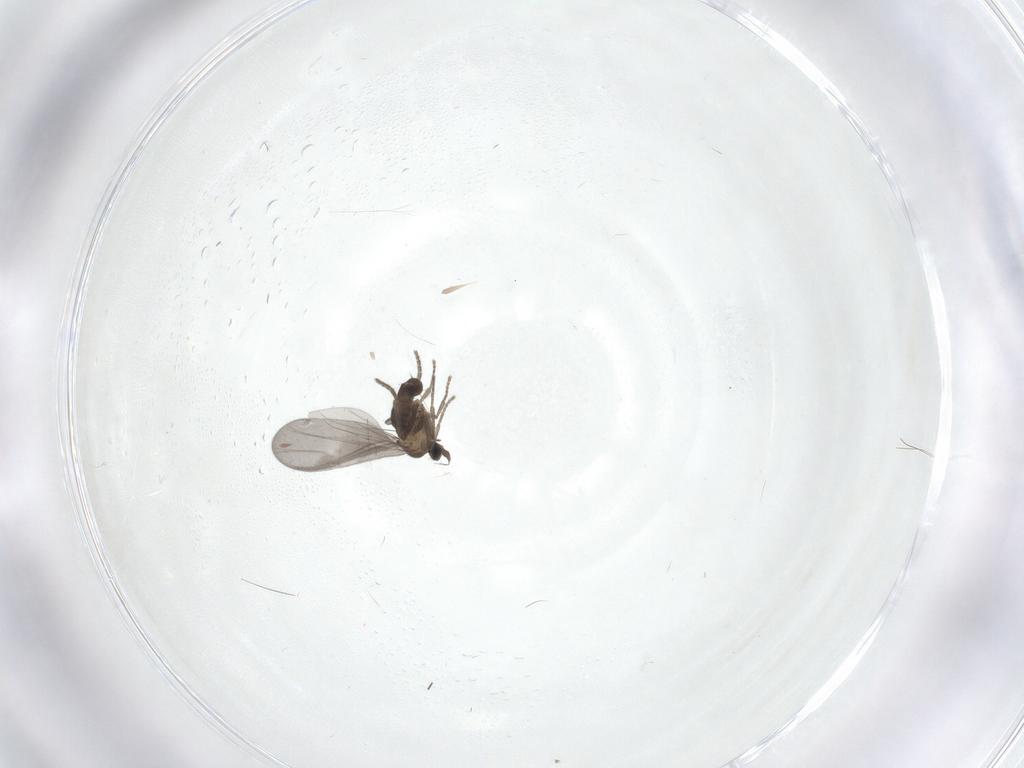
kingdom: Animalia
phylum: Arthropoda
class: Insecta
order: Diptera
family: Phoridae
